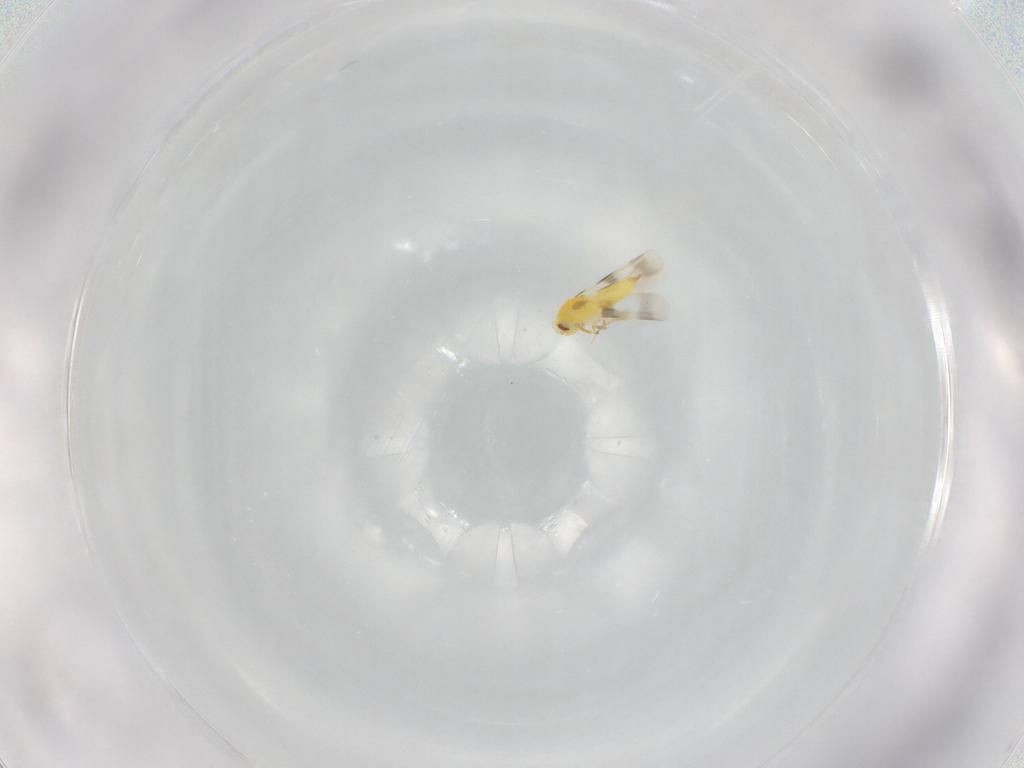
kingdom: Animalia
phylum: Arthropoda
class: Insecta
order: Hemiptera
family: Aleyrodidae
